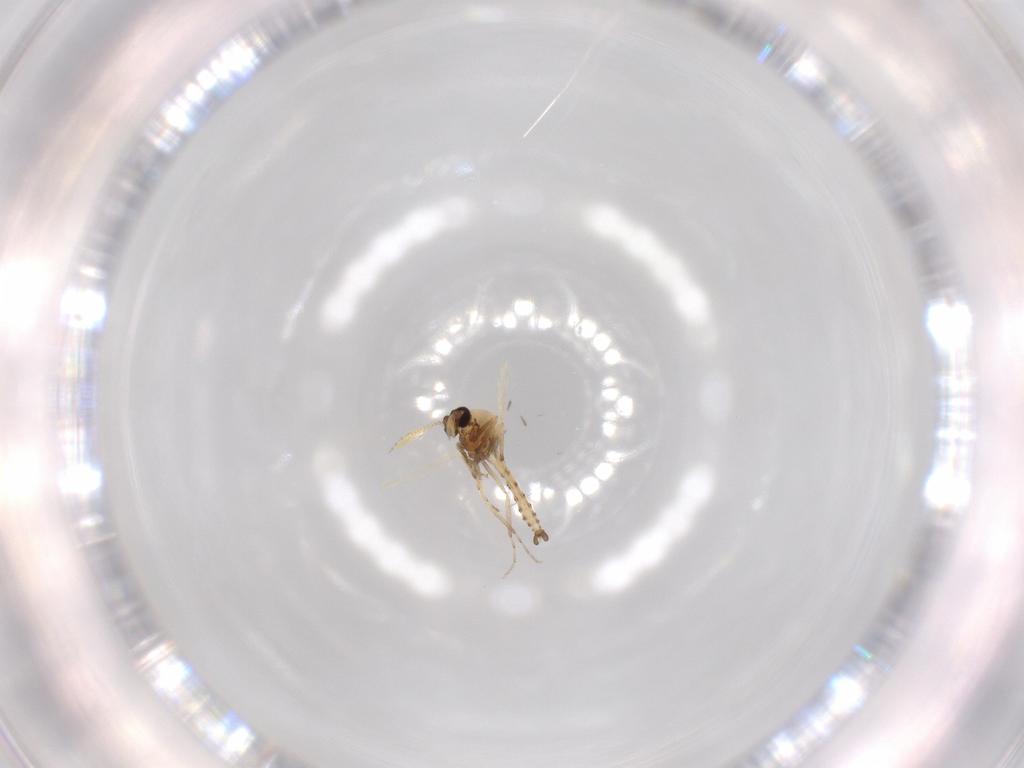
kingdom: Animalia
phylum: Arthropoda
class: Insecta
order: Diptera
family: Ceratopogonidae
